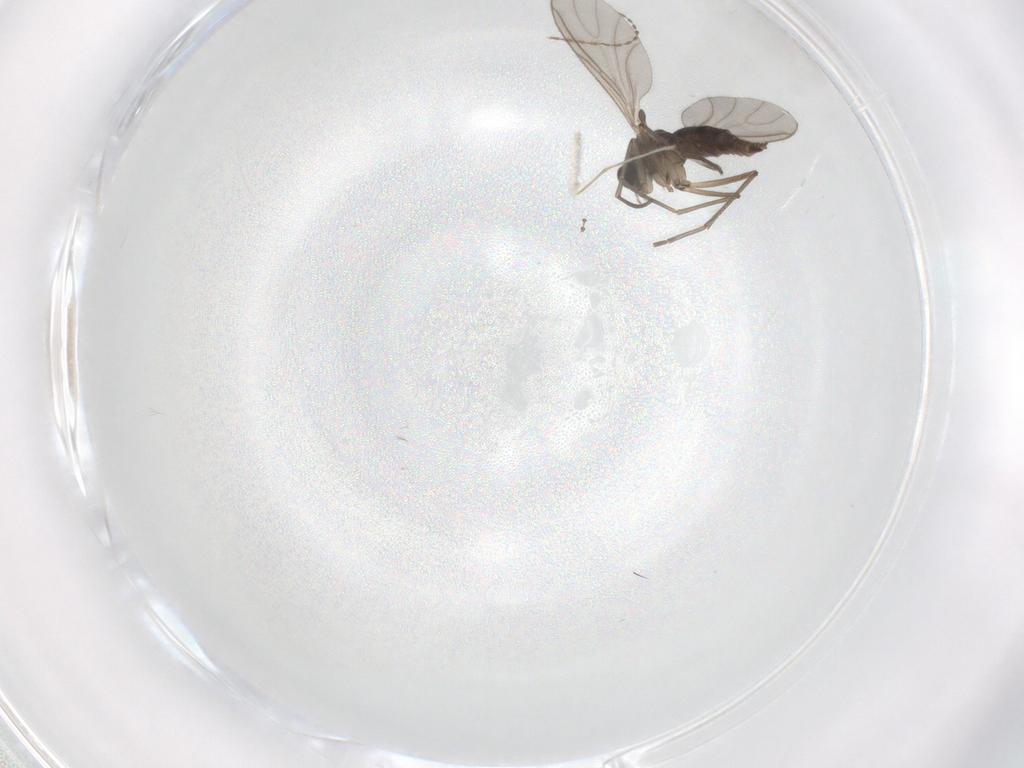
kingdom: Animalia
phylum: Arthropoda
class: Insecta
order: Diptera
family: Sciaridae
